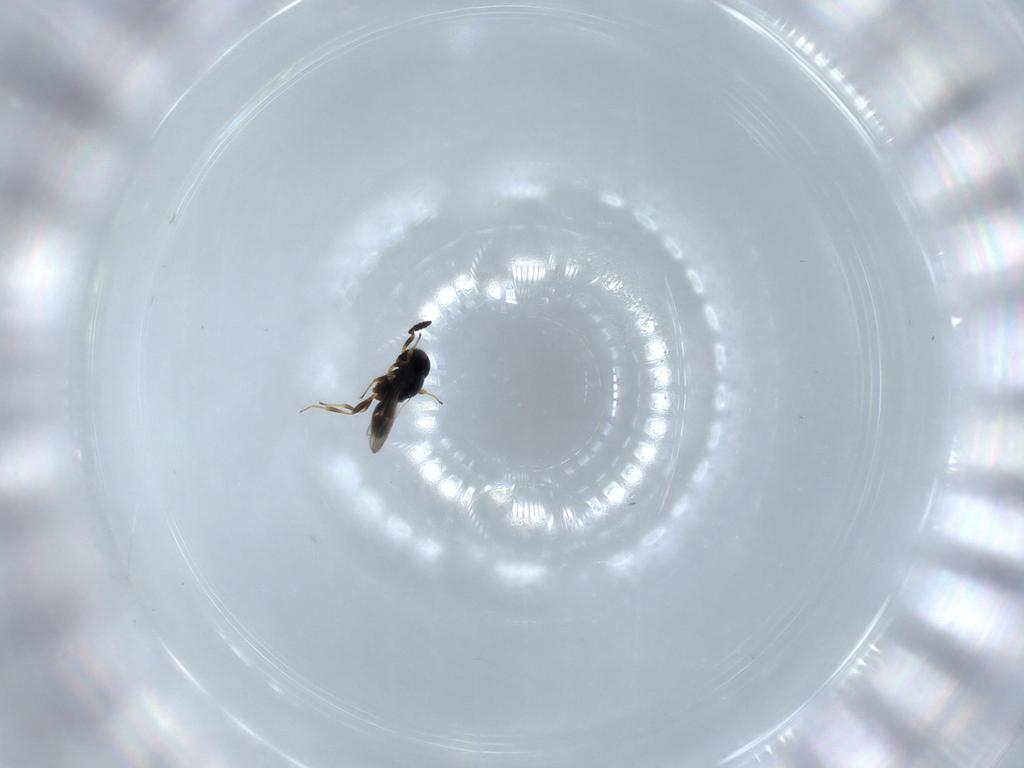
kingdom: Animalia
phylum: Arthropoda
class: Insecta
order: Hymenoptera
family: Scelionidae
